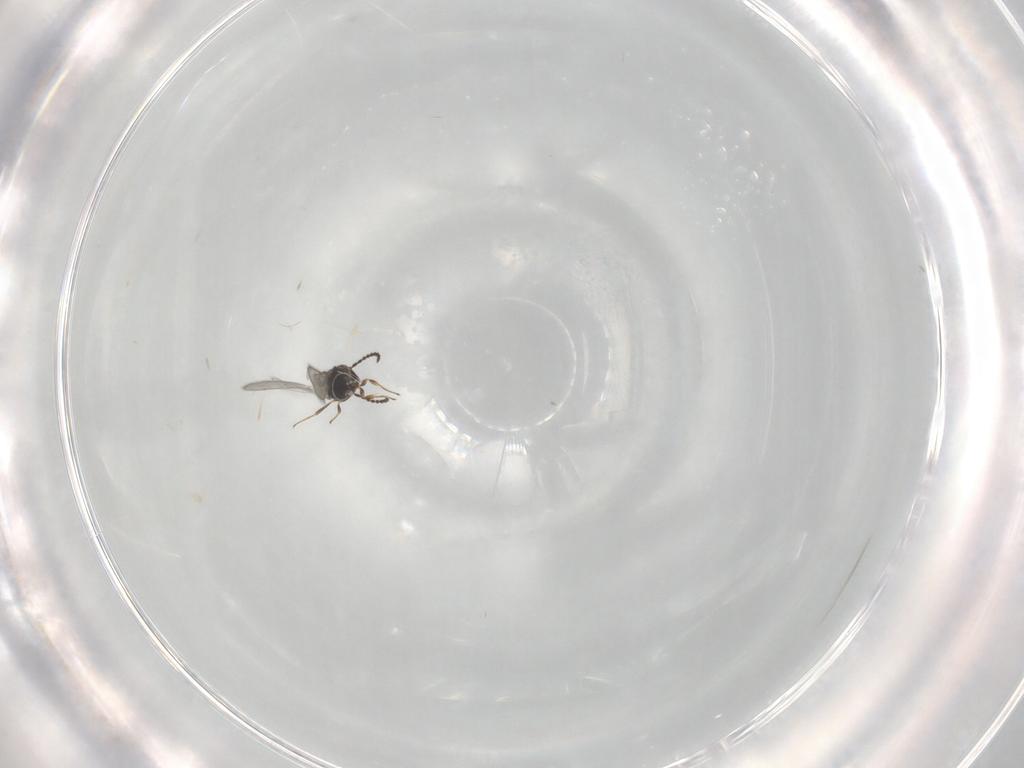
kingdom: Animalia
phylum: Arthropoda
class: Insecta
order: Hymenoptera
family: Scelionidae
